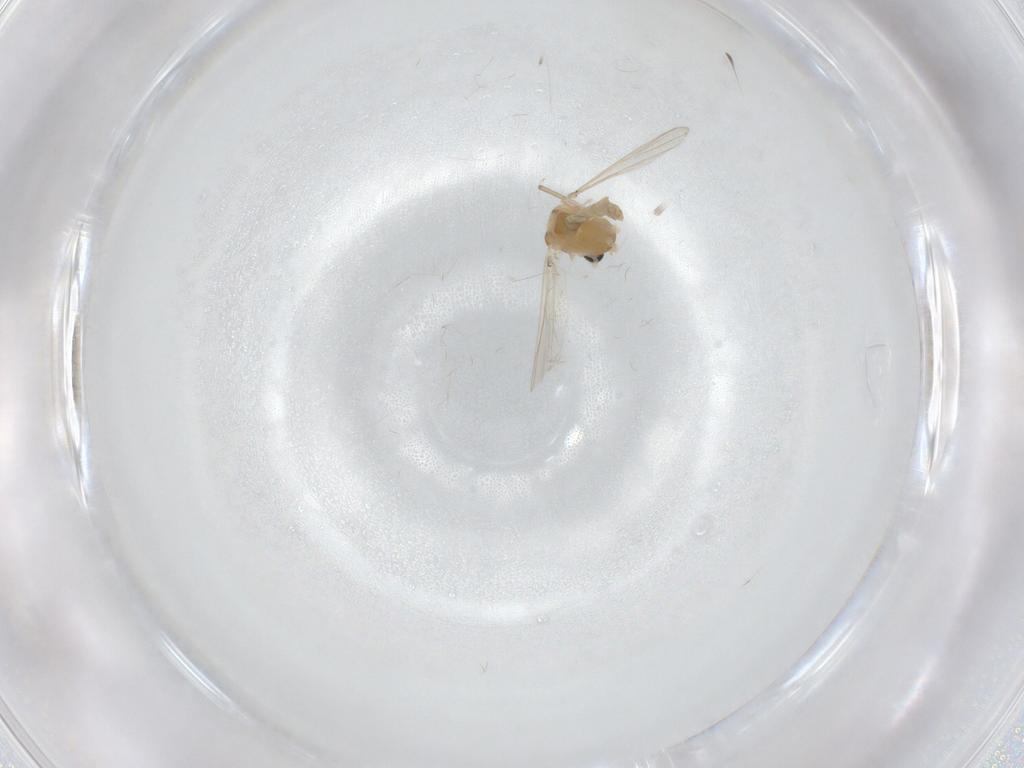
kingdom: Animalia
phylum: Arthropoda
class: Insecta
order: Diptera
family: Chironomidae
